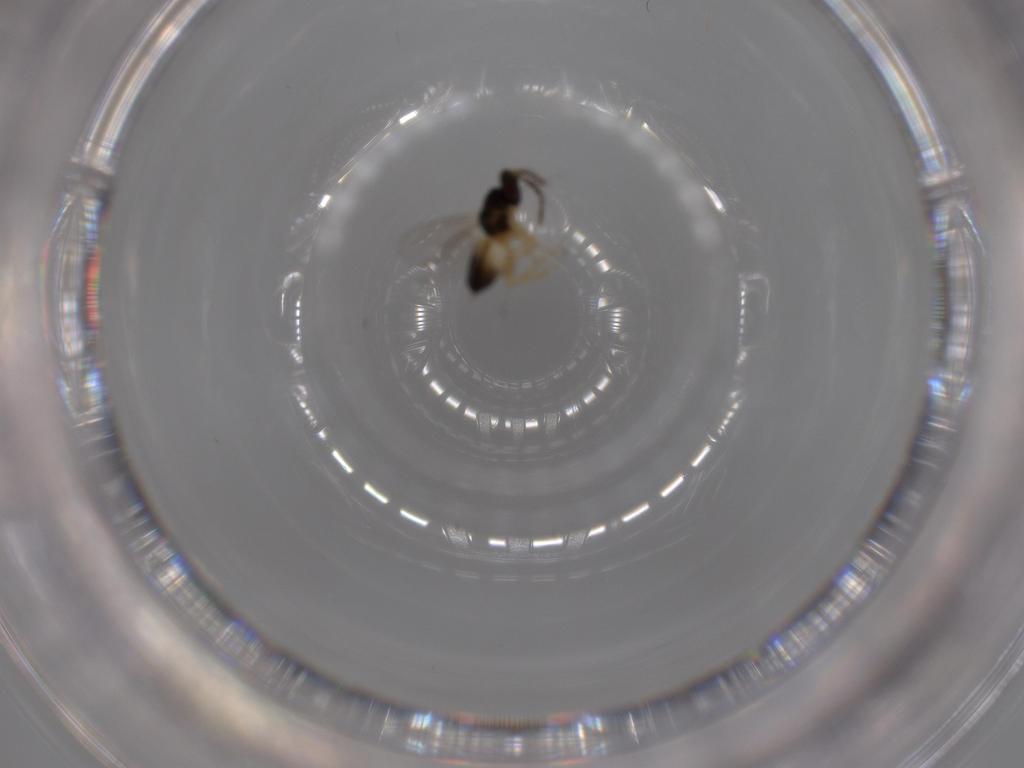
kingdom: Animalia
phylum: Arthropoda
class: Insecta
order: Hymenoptera
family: Eulophidae
